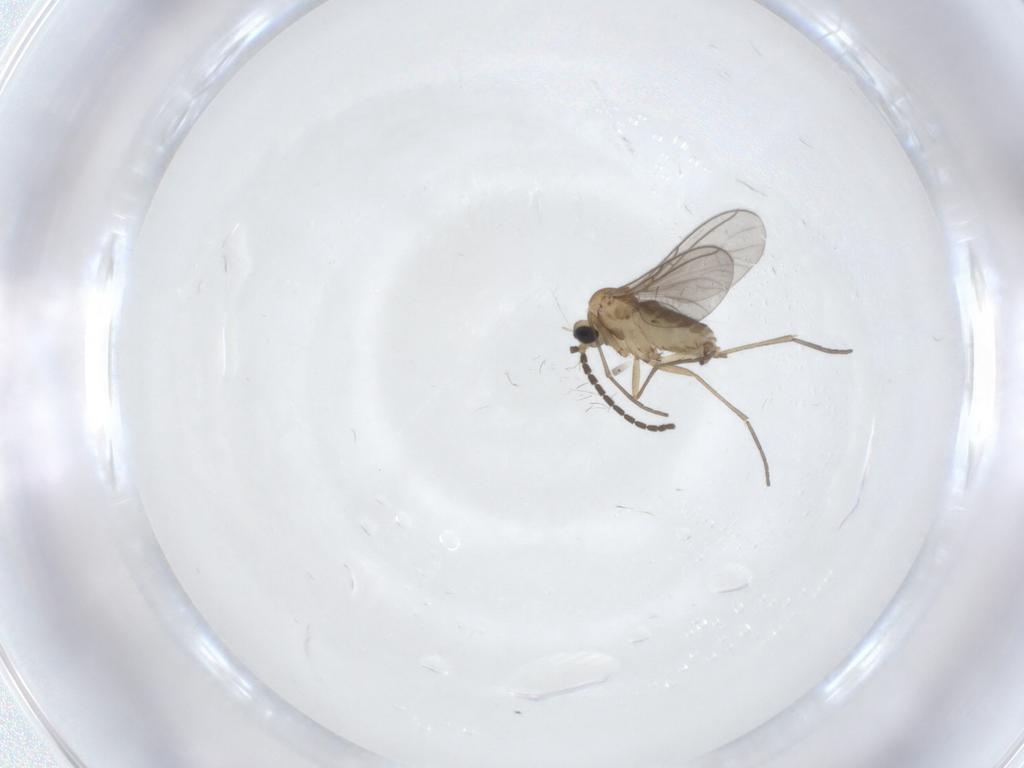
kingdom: Animalia
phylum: Arthropoda
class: Insecta
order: Diptera
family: Sciaridae
